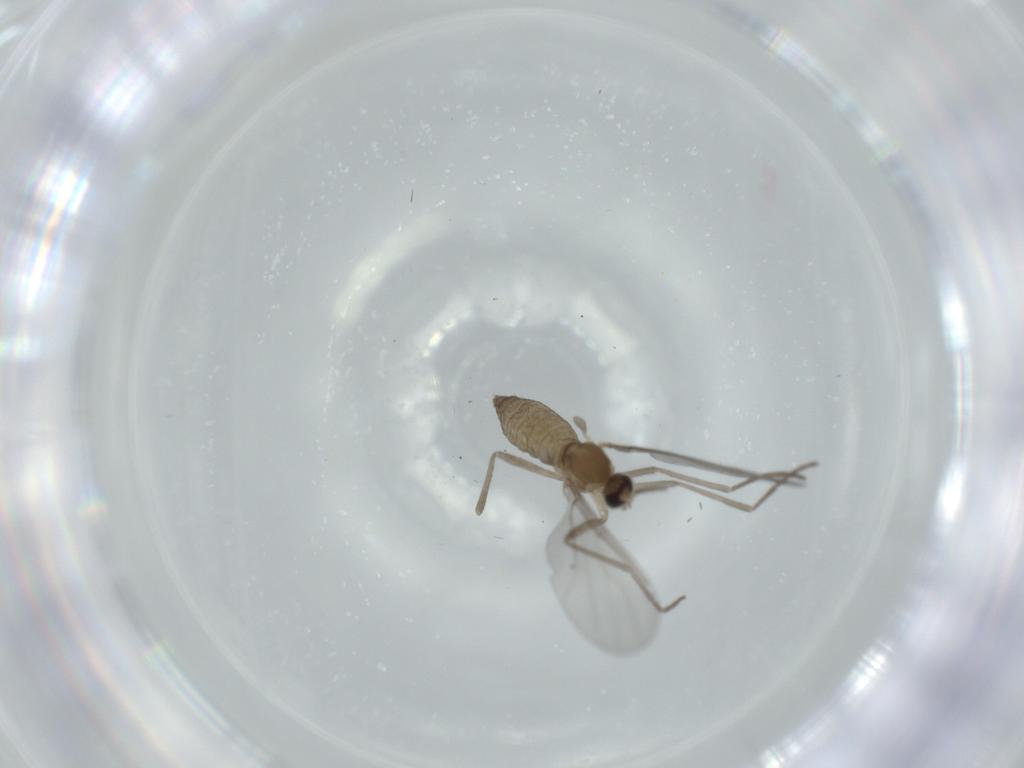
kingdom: Animalia
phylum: Arthropoda
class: Insecta
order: Diptera
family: Cecidomyiidae
